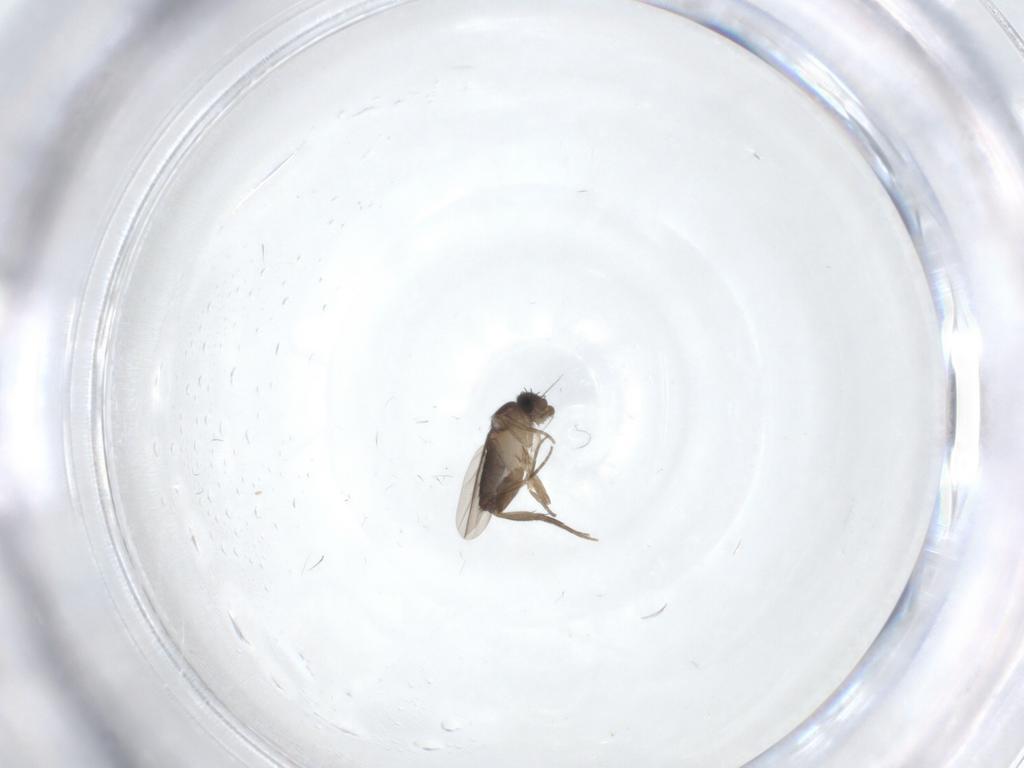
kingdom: Animalia
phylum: Arthropoda
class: Insecta
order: Diptera
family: Phoridae
